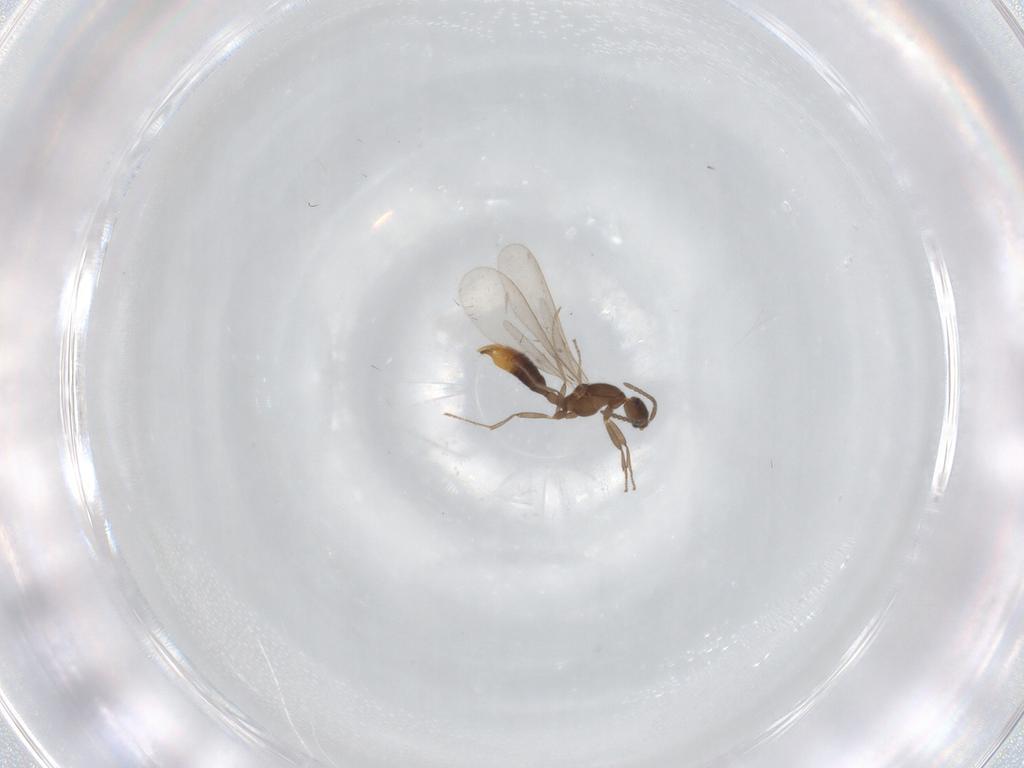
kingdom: Animalia
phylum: Arthropoda
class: Insecta
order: Hymenoptera
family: Formicidae
